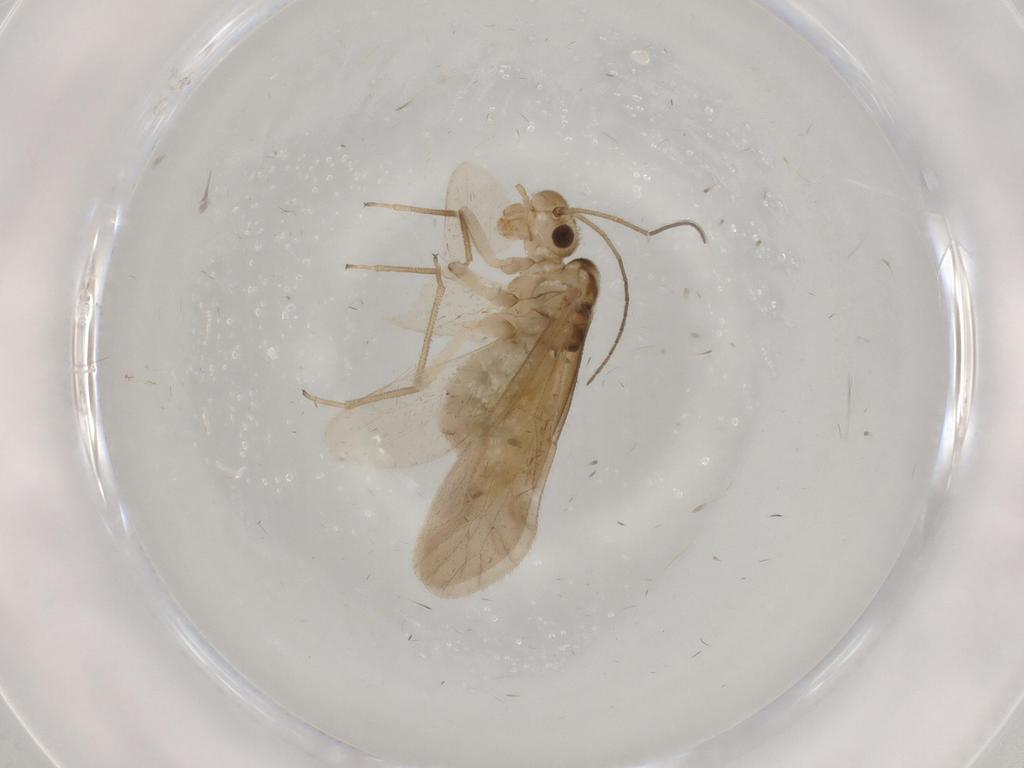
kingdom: Animalia
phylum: Arthropoda
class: Insecta
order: Psocodea
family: Caeciliusidae
